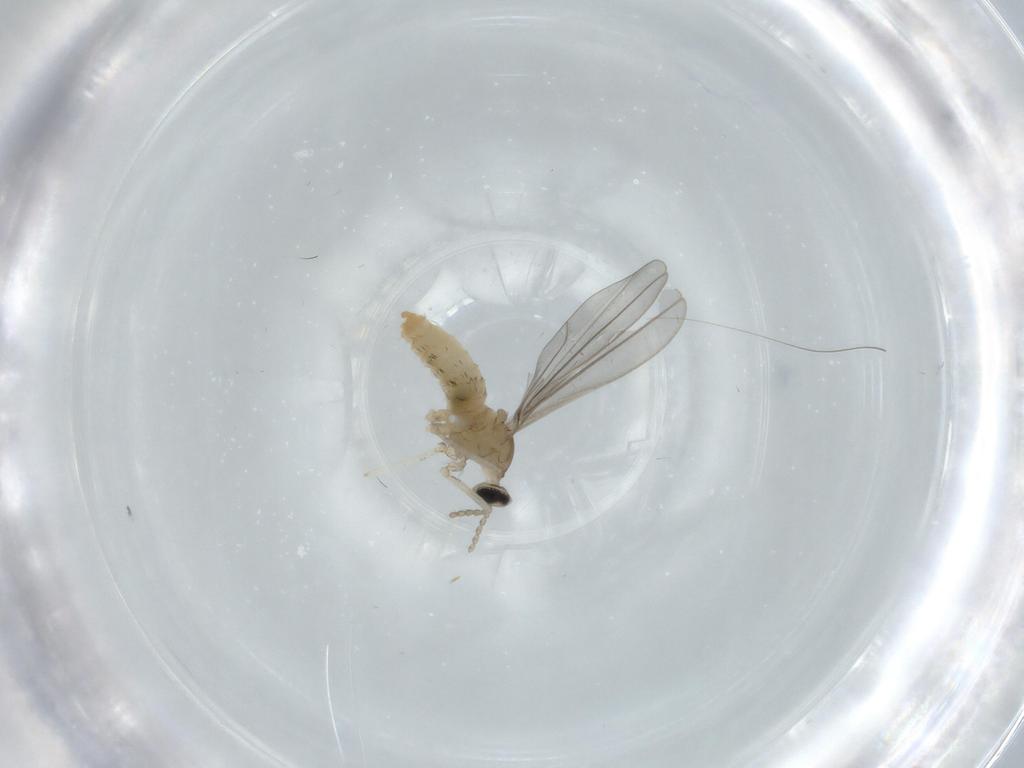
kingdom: Animalia
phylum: Arthropoda
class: Insecta
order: Diptera
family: Cecidomyiidae
